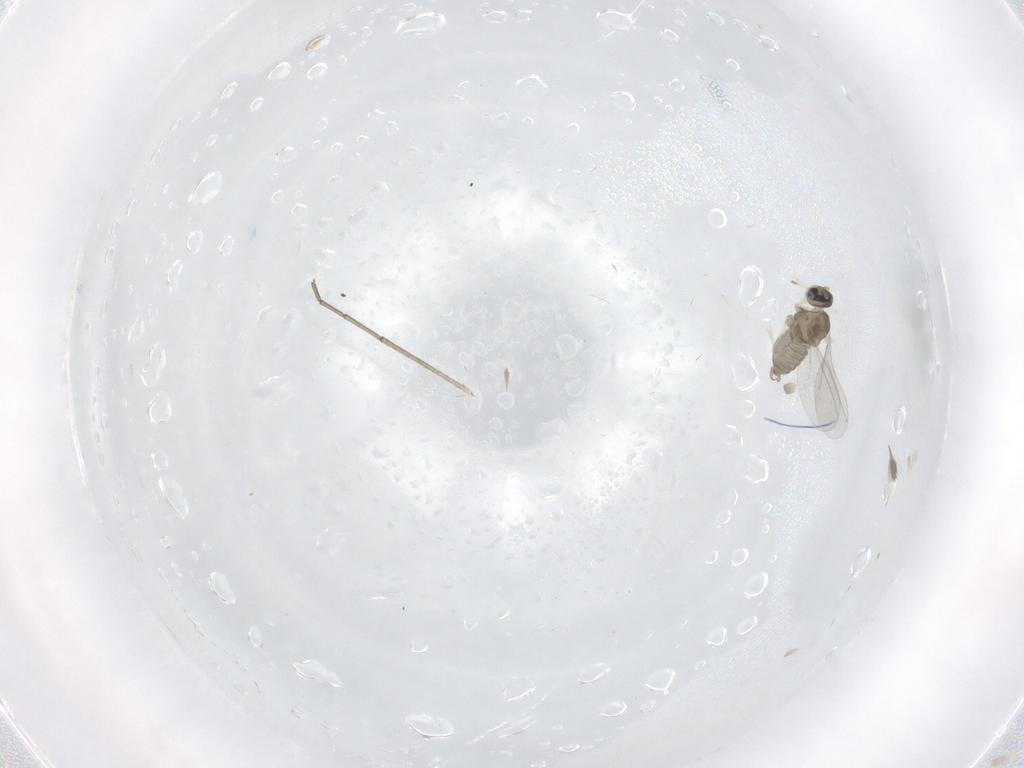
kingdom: Animalia
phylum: Arthropoda
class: Insecta
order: Diptera
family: Cecidomyiidae
